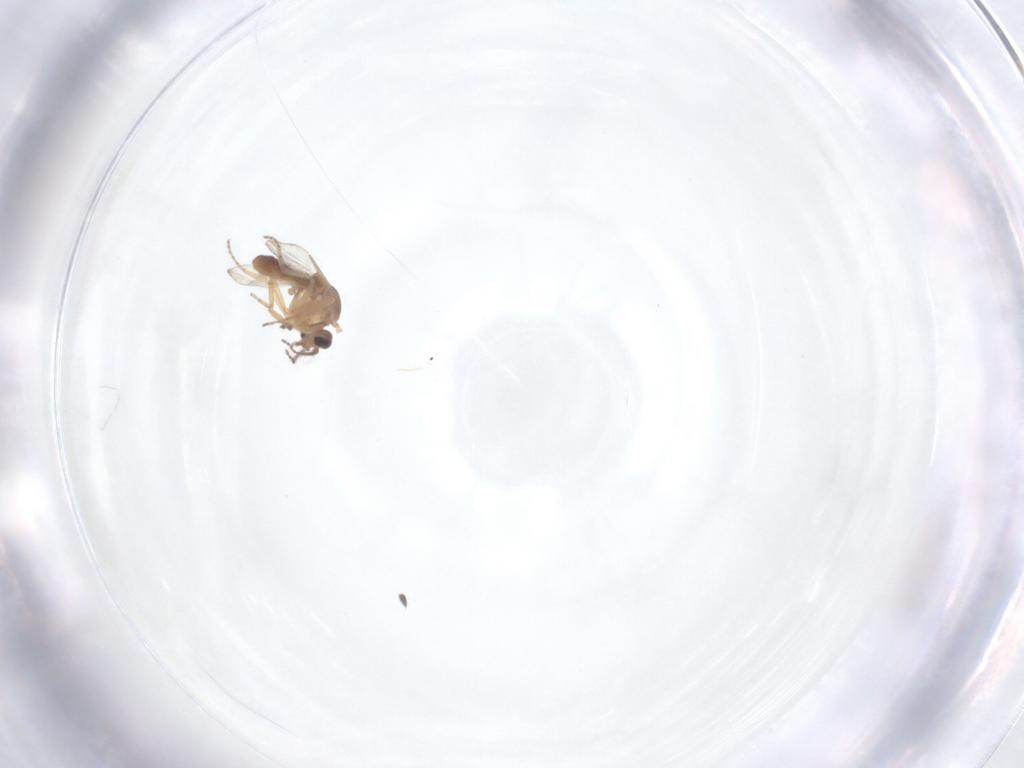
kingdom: Animalia
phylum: Arthropoda
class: Insecta
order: Diptera
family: Ceratopogonidae
